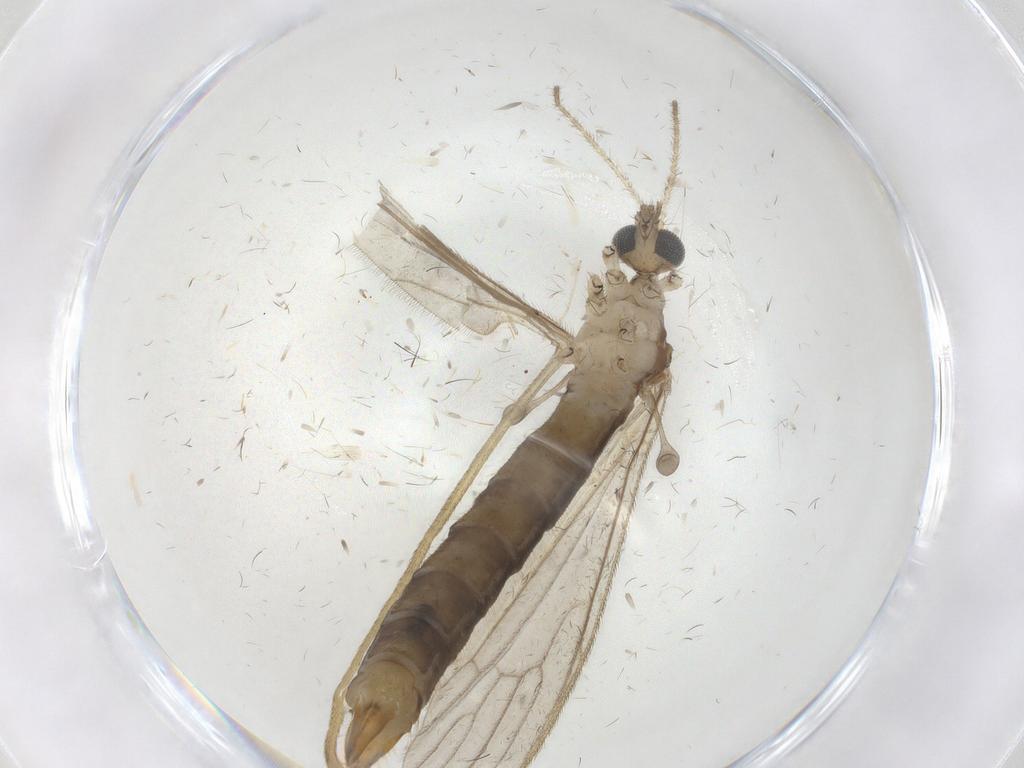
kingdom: Animalia
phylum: Arthropoda
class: Insecta
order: Diptera
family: Limoniidae
